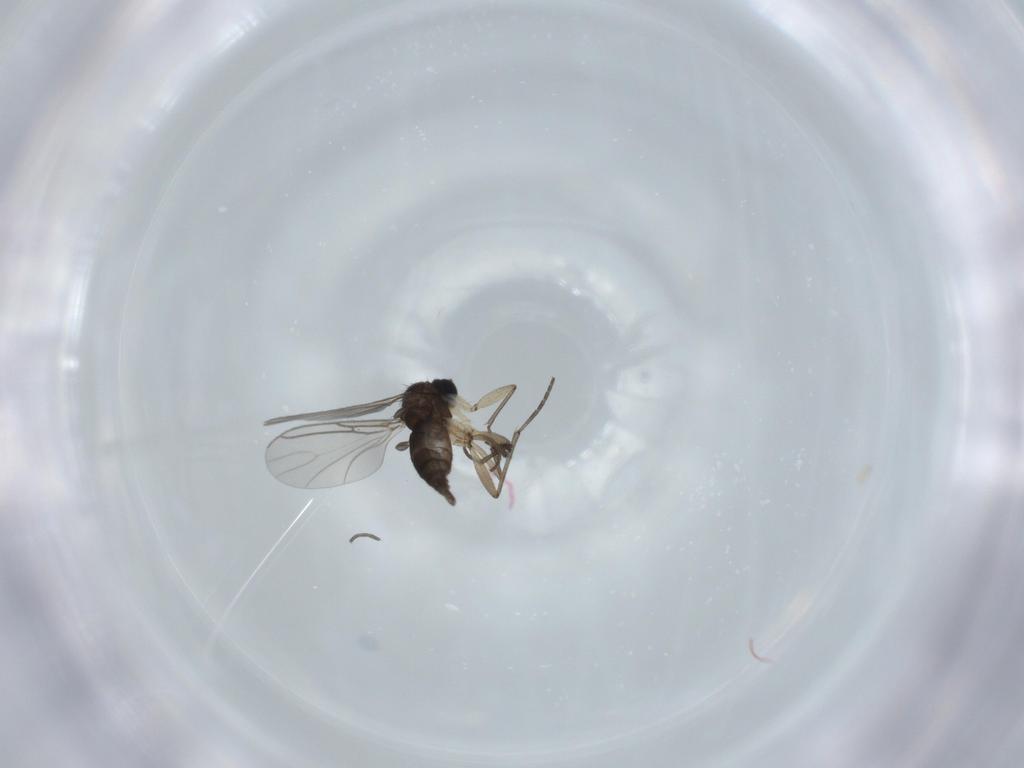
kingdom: Animalia
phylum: Arthropoda
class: Insecta
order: Diptera
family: Sciaridae
